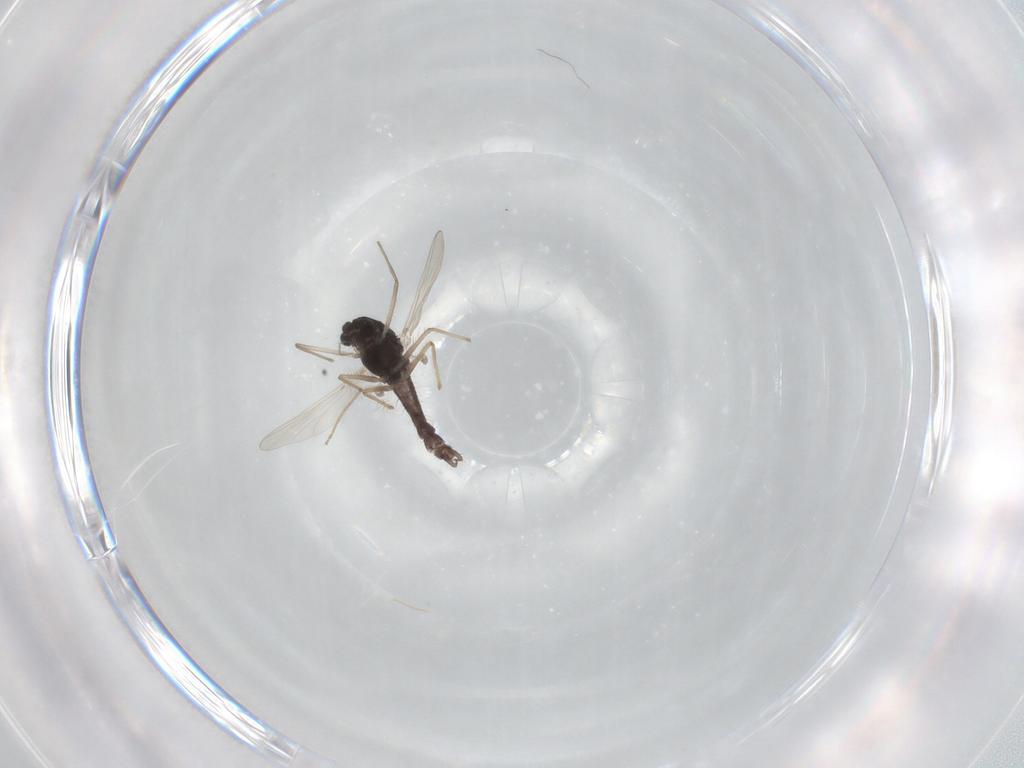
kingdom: Animalia
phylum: Arthropoda
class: Insecta
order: Diptera
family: Chironomidae
